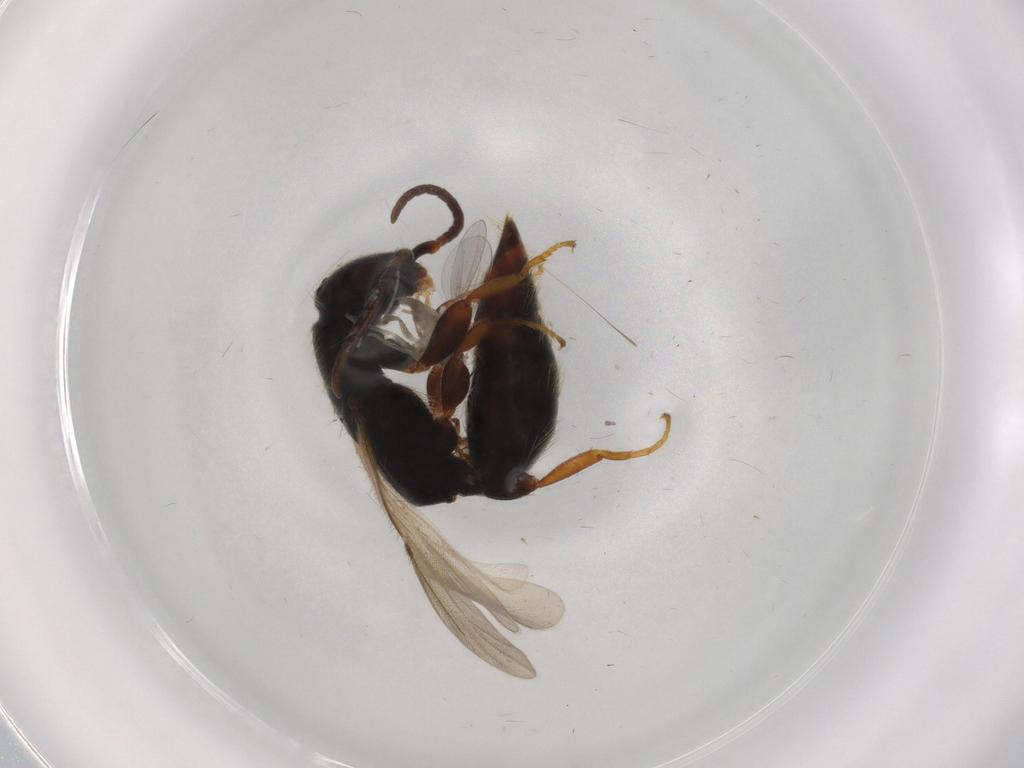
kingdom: Animalia
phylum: Arthropoda
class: Insecta
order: Hymenoptera
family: Bethylidae
